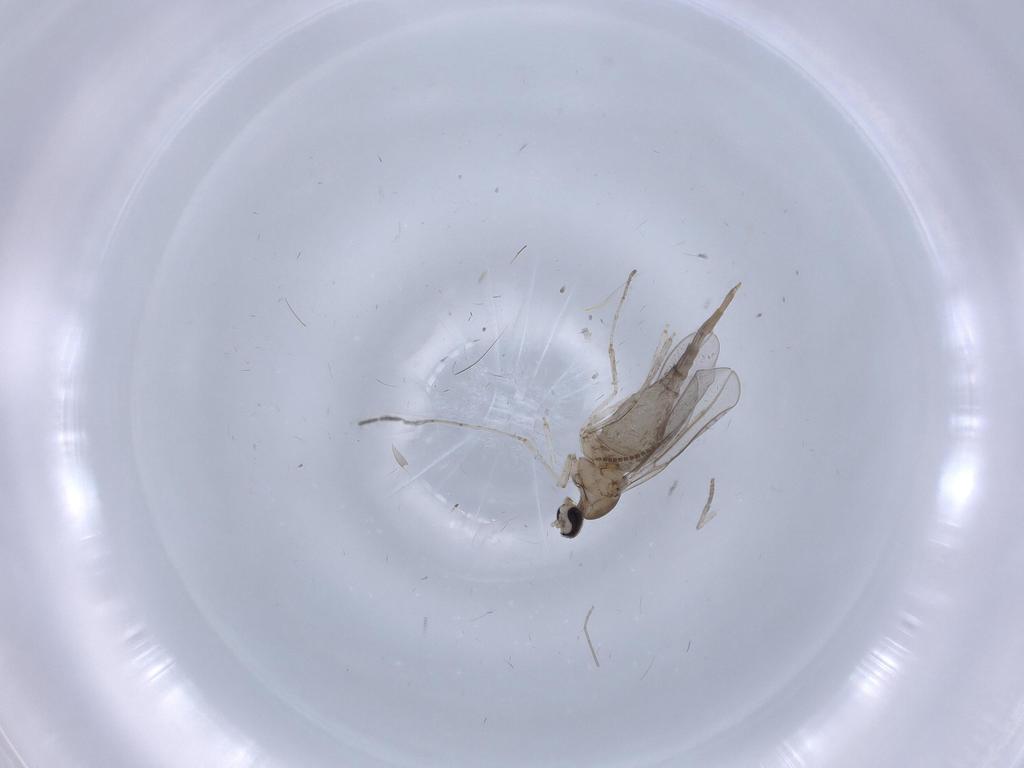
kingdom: Animalia
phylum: Arthropoda
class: Insecta
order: Diptera
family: Cecidomyiidae
